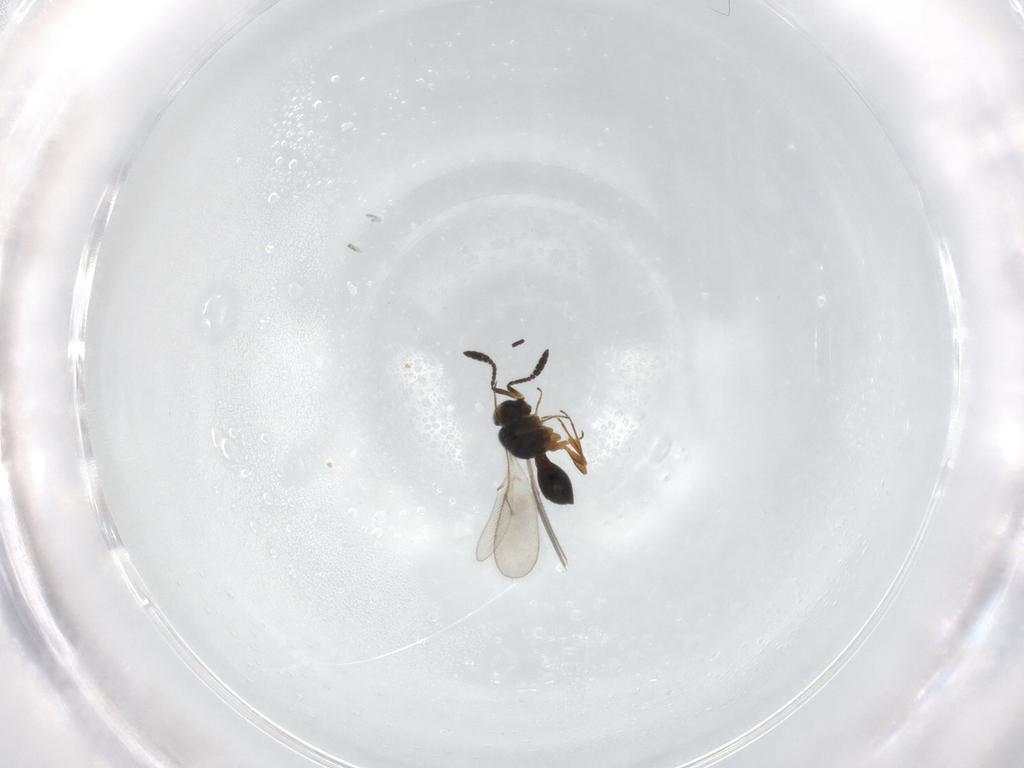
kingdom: Animalia
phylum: Arthropoda
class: Insecta
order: Hymenoptera
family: Scelionidae
